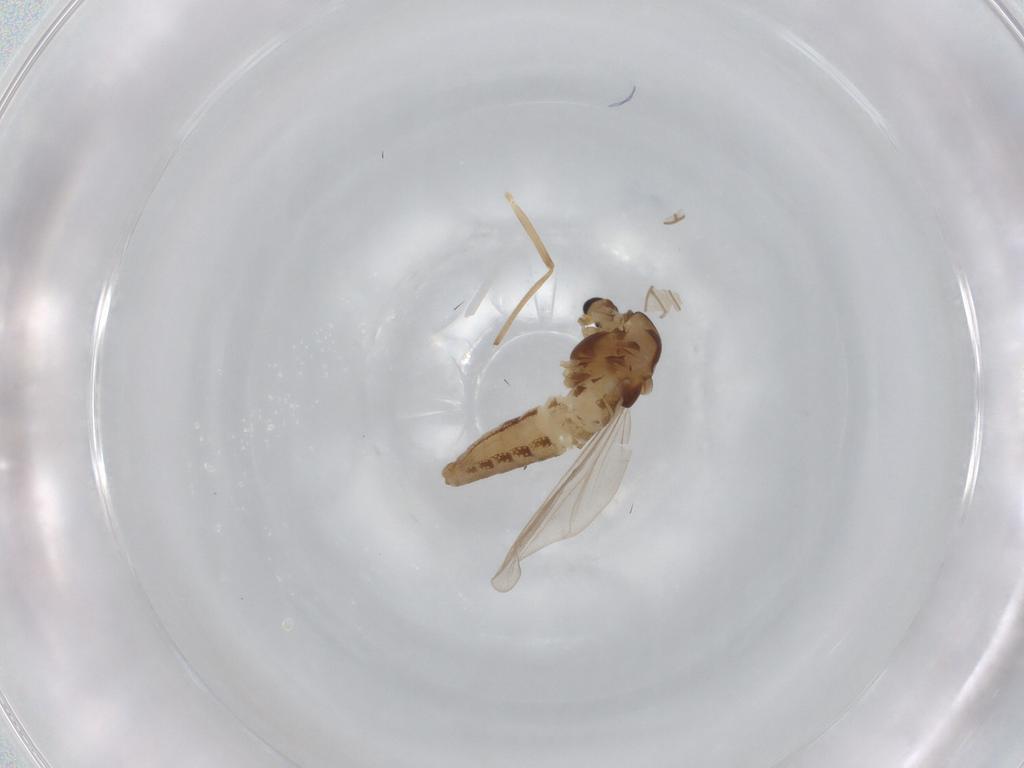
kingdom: Animalia
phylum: Arthropoda
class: Insecta
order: Diptera
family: Chironomidae
